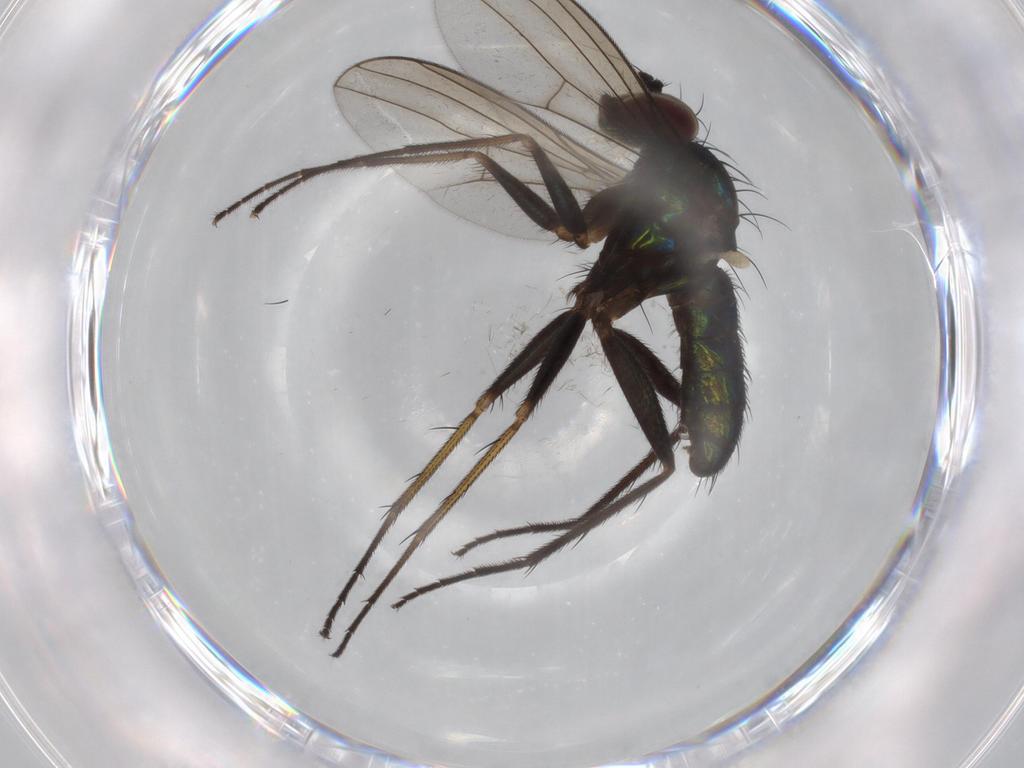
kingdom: Animalia
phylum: Arthropoda
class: Insecta
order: Diptera
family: Dolichopodidae
